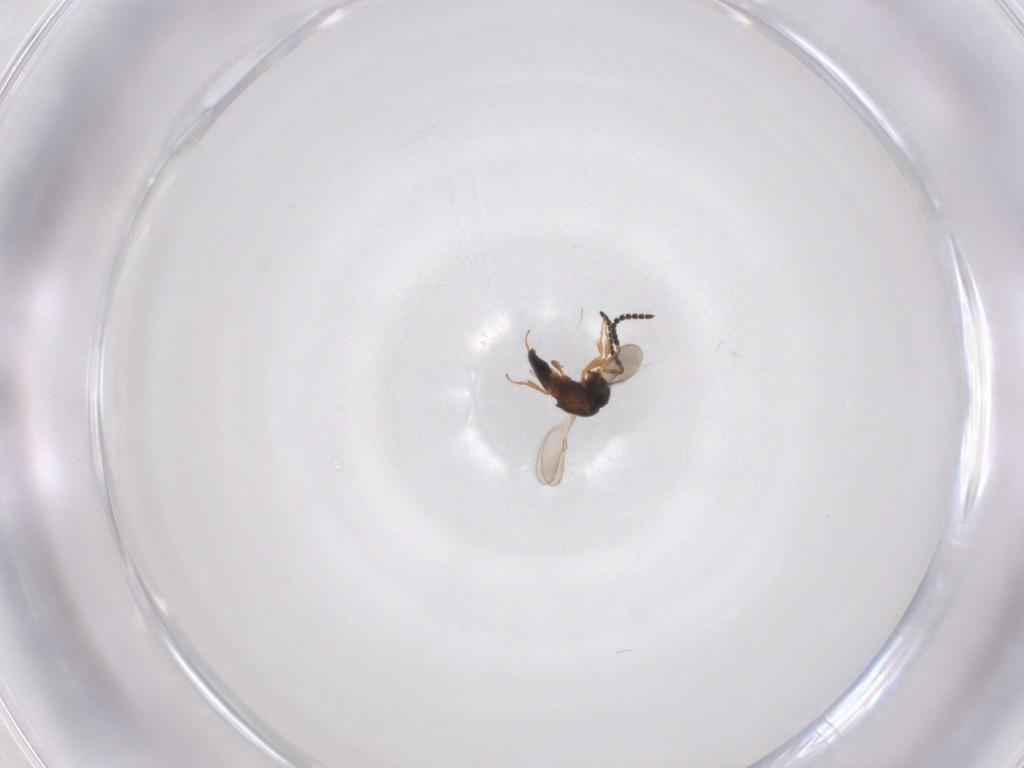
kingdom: Animalia
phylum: Arthropoda
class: Insecta
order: Hymenoptera
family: Scelionidae
